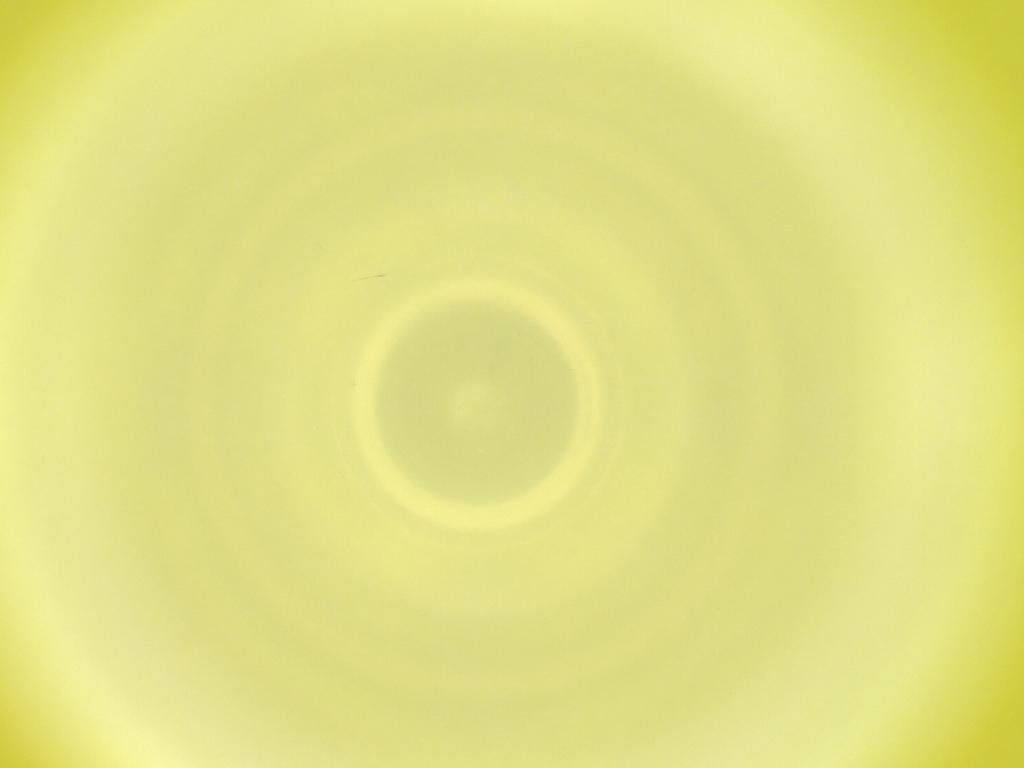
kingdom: Animalia
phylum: Arthropoda
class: Insecta
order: Diptera
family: Cecidomyiidae
